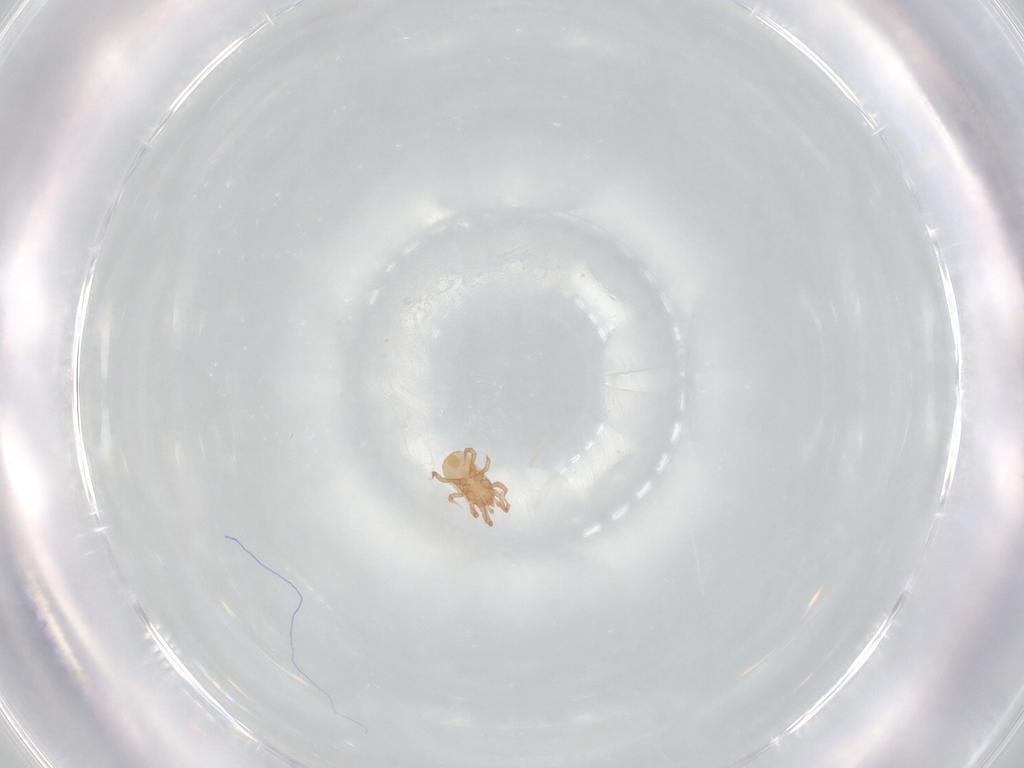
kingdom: Animalia
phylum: Arthropoda
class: Arachnida
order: Mesostigmata
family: Ascidae
